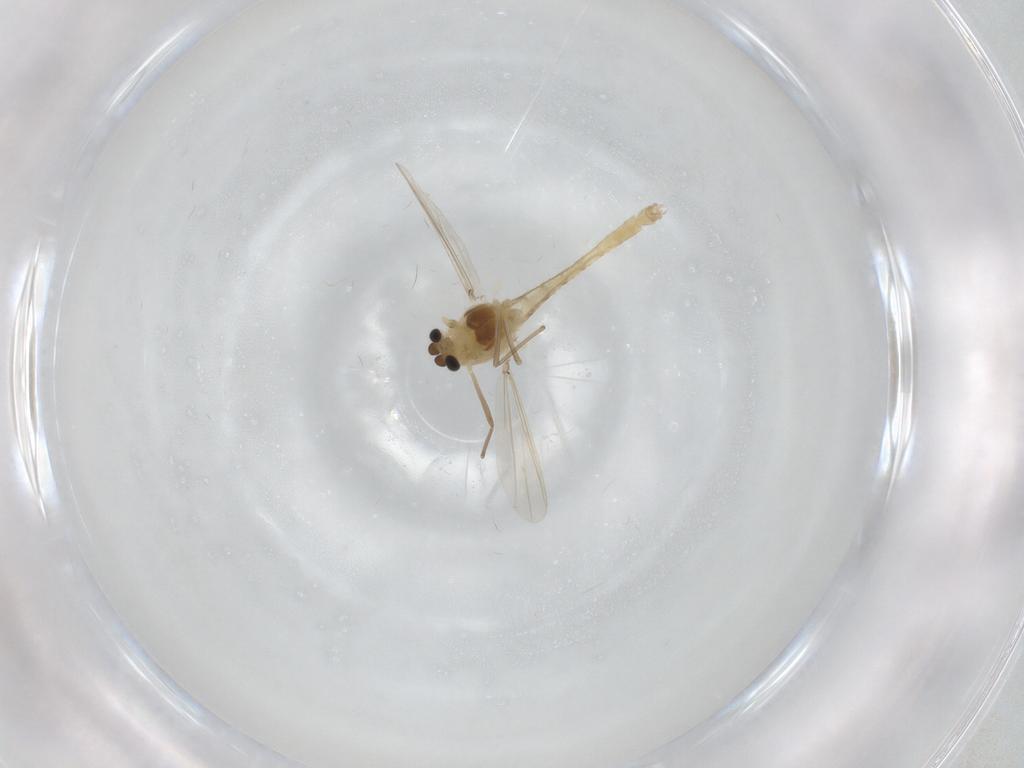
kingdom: Animalia
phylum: Arthropoda
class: Insecta
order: Diptera
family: Chironomidae
